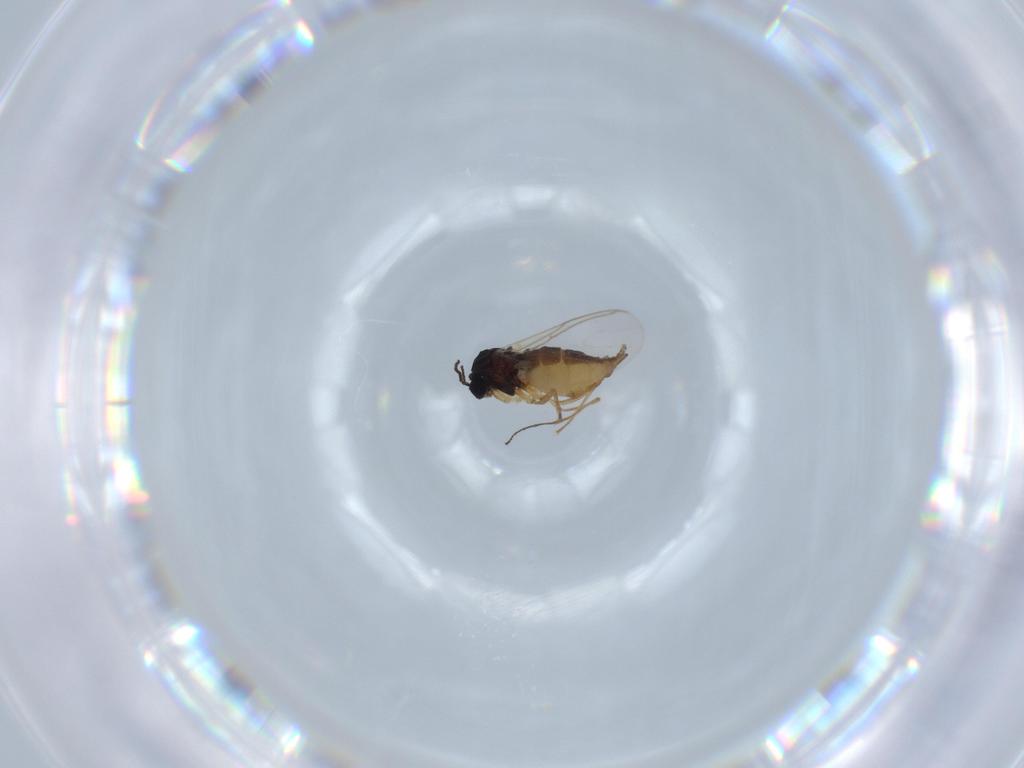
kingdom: Animalia
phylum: Arthropoda
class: Insecta
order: Diptera
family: Sciaridae
